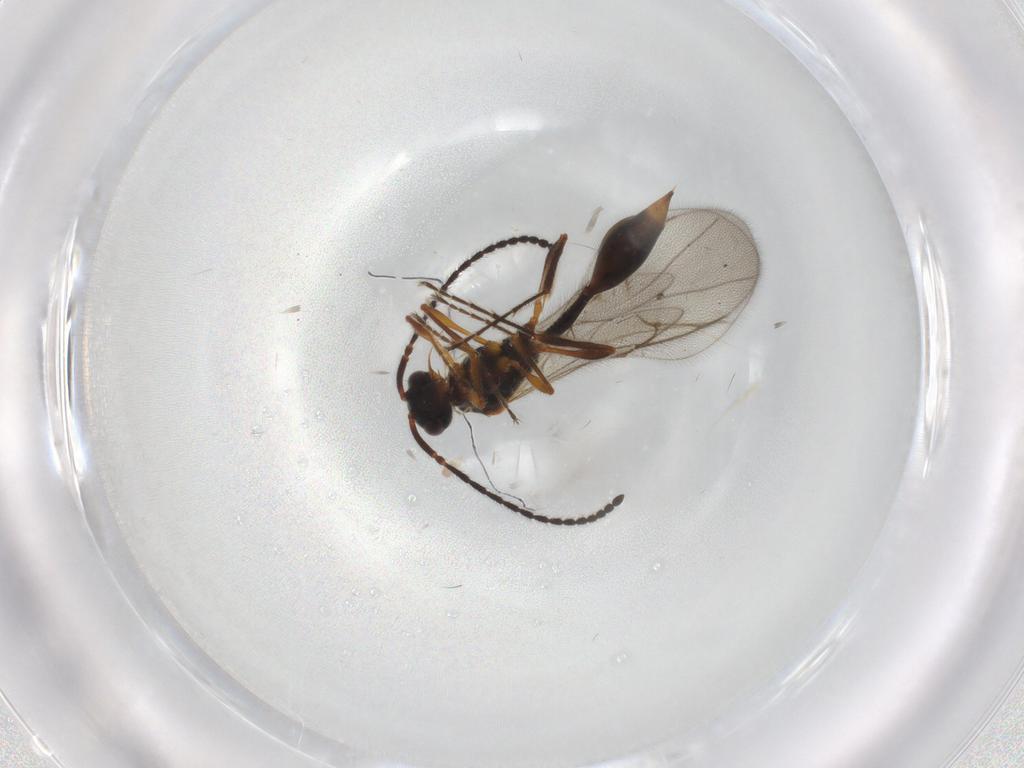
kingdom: Animalia
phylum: Arthropoda
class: Insecta
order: Hymenoptera
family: Diapriidae
